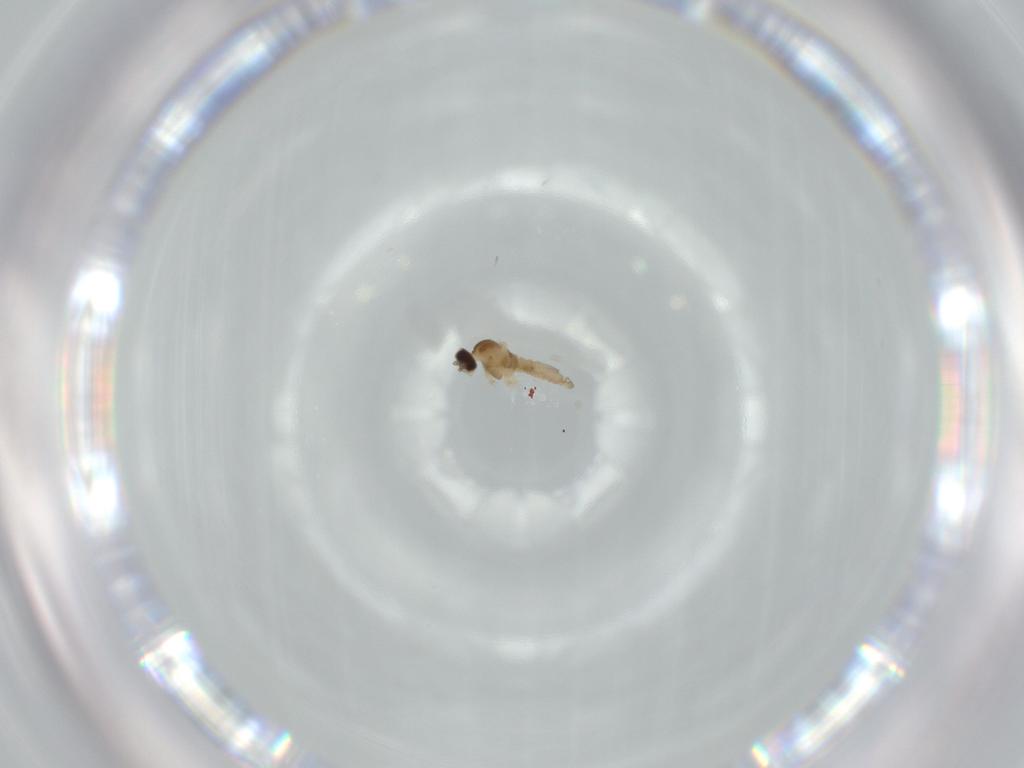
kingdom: Animalia
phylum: Arthropoda
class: Insecta
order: Diptera
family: Cecidomyiidae
